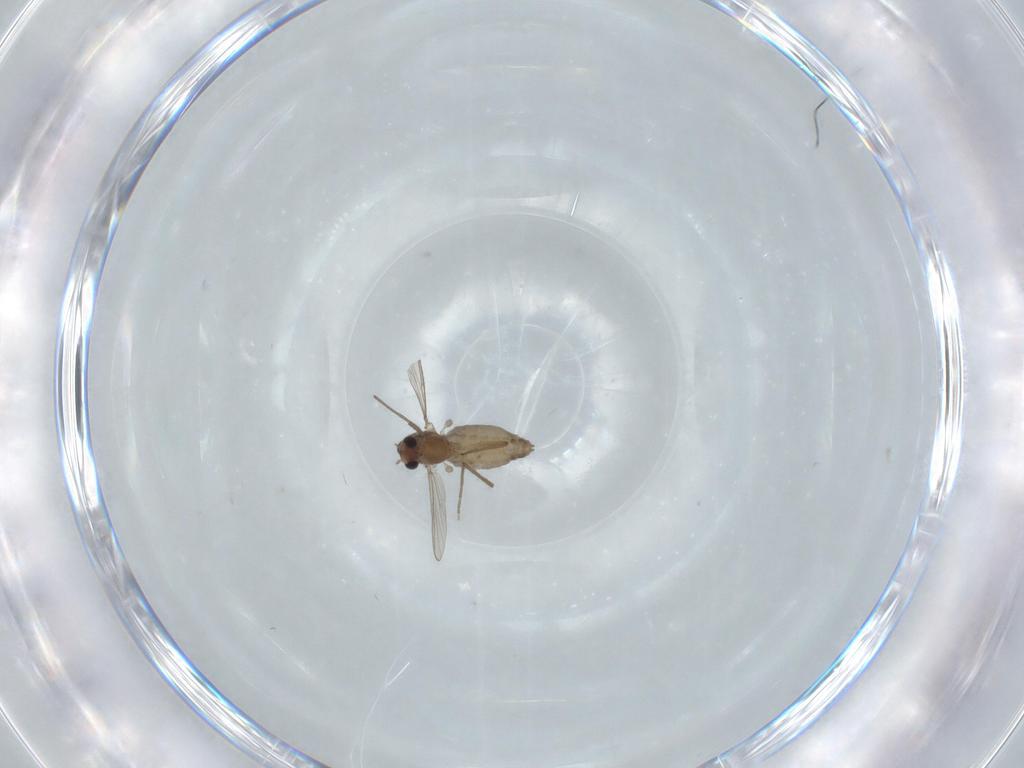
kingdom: Animalia
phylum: Arthropoda
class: Insecta
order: Diptera
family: Chironomidae
